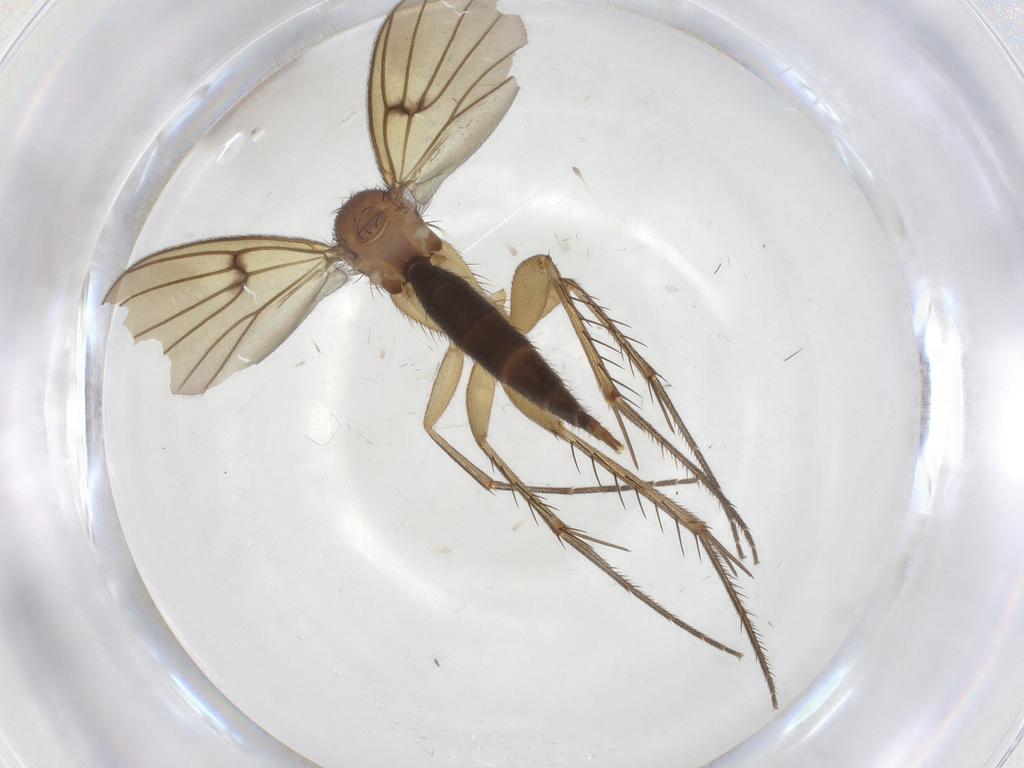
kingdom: Animalia
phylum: Arthropoda
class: Insecta
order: Diptera
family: Mycetophilidae
